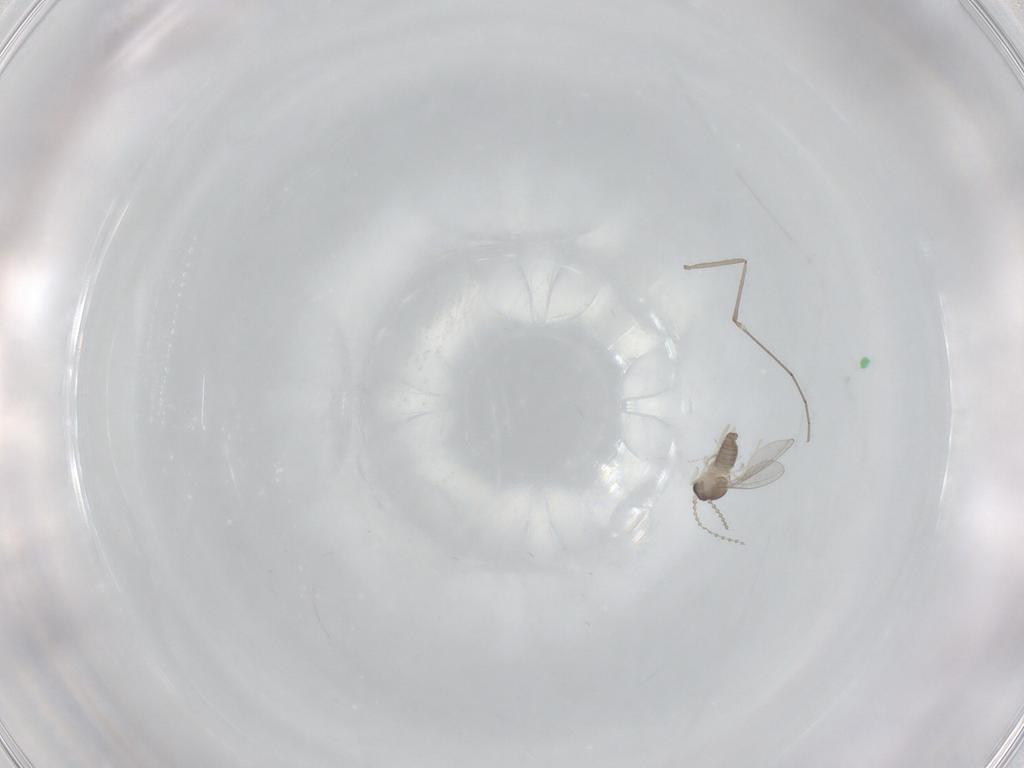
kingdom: Animalia
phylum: Arthropoda
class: Insecta
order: Diptera
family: Cecidomyiidae
